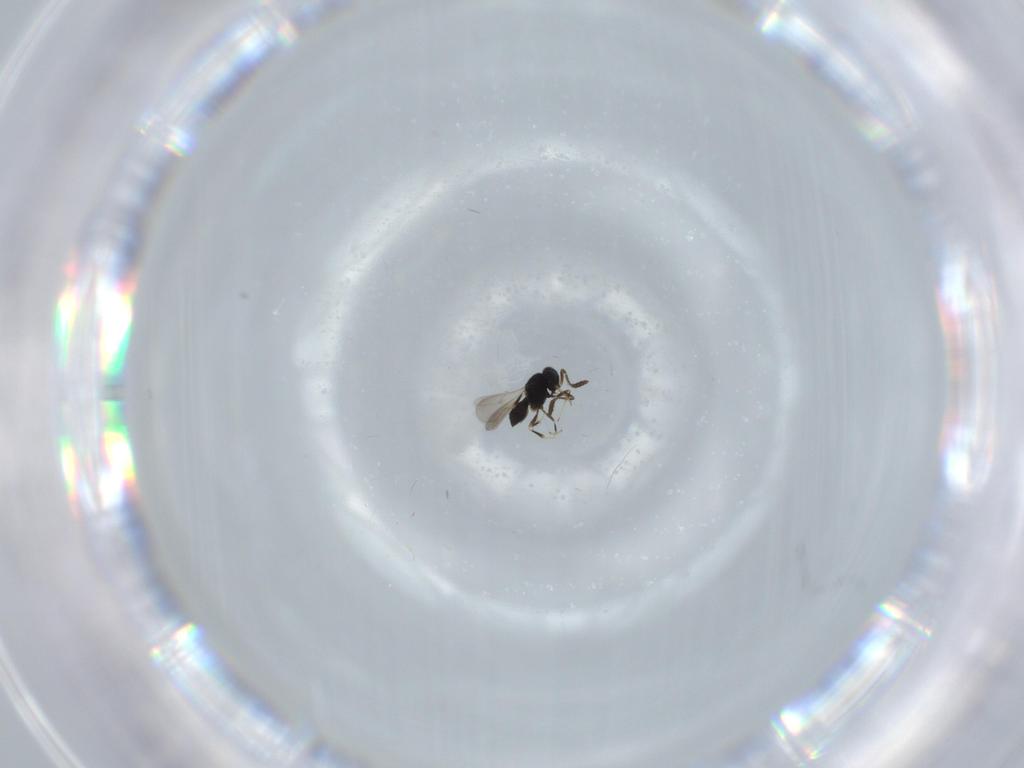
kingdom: Animalia
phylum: Arthropoda
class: Insecta
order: Hymenoptera
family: Scelionidae
